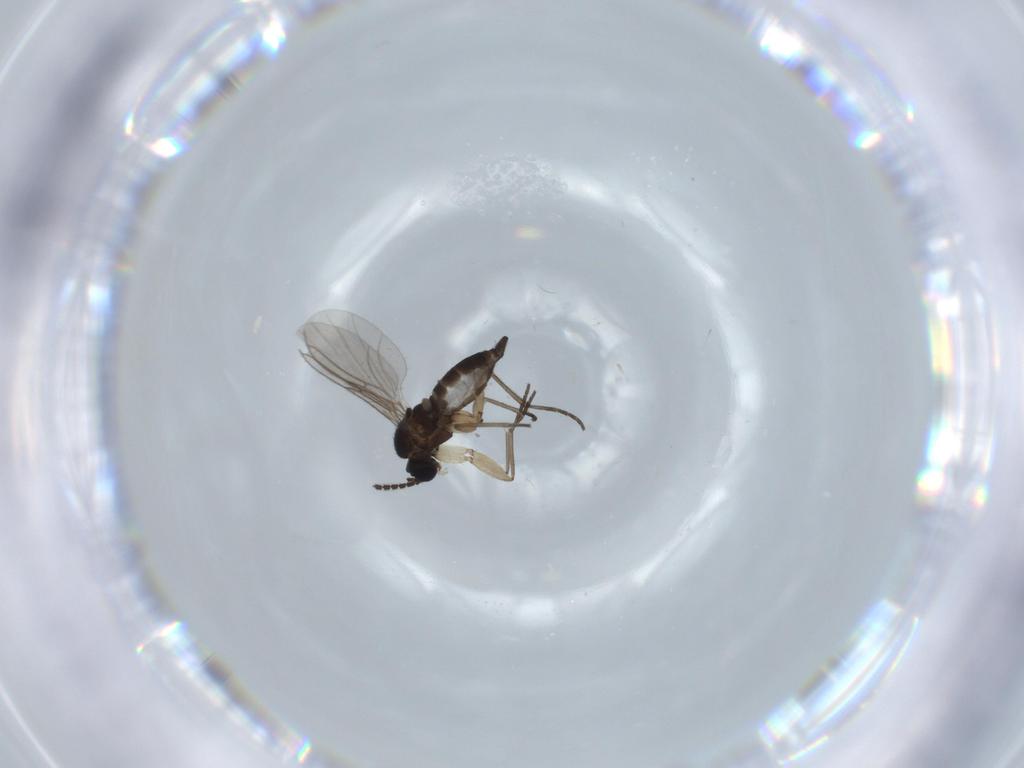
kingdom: Animalia
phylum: Arthropoda
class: Insecta
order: Diptera
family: Sciaridae
